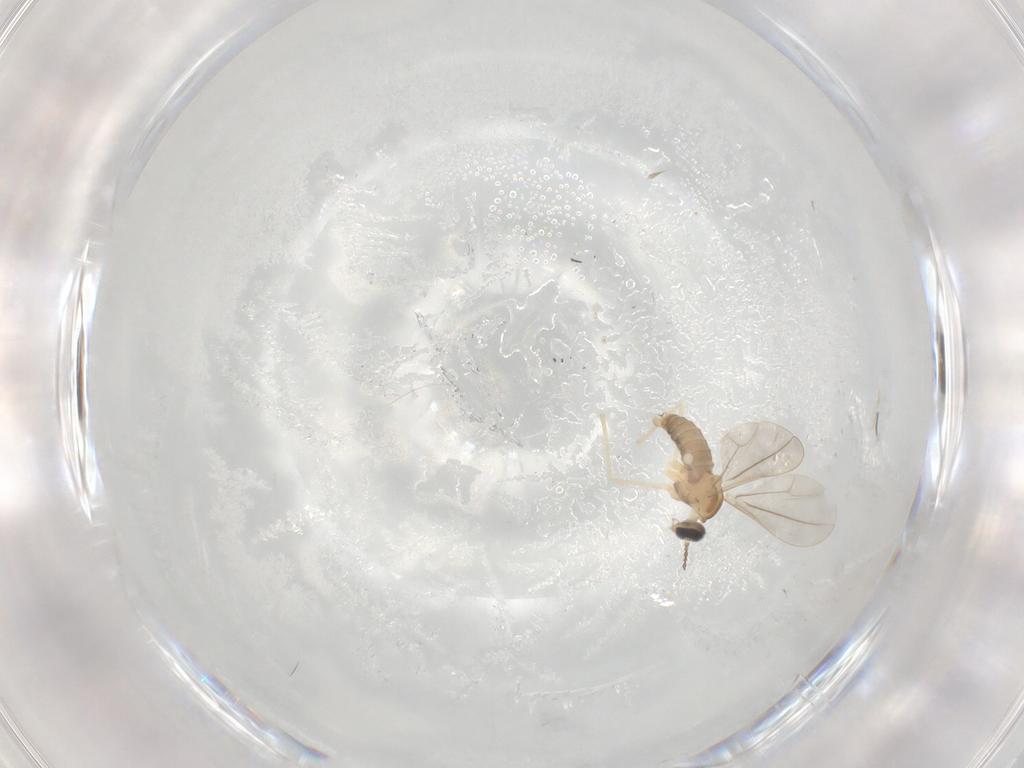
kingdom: Animalia
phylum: Arthropoda
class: Insecta
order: Diptera
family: Cecidomyiidae
